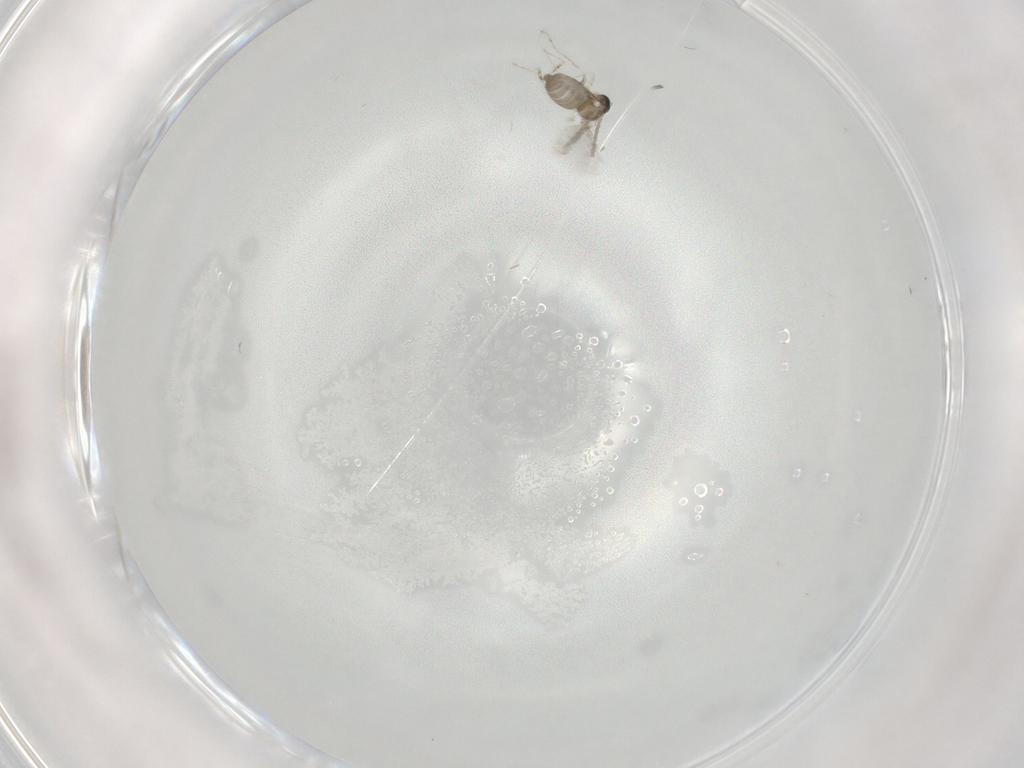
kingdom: Animalia
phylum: Arthropoda
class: Insecta
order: Diptera
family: Cecidomyiidae
